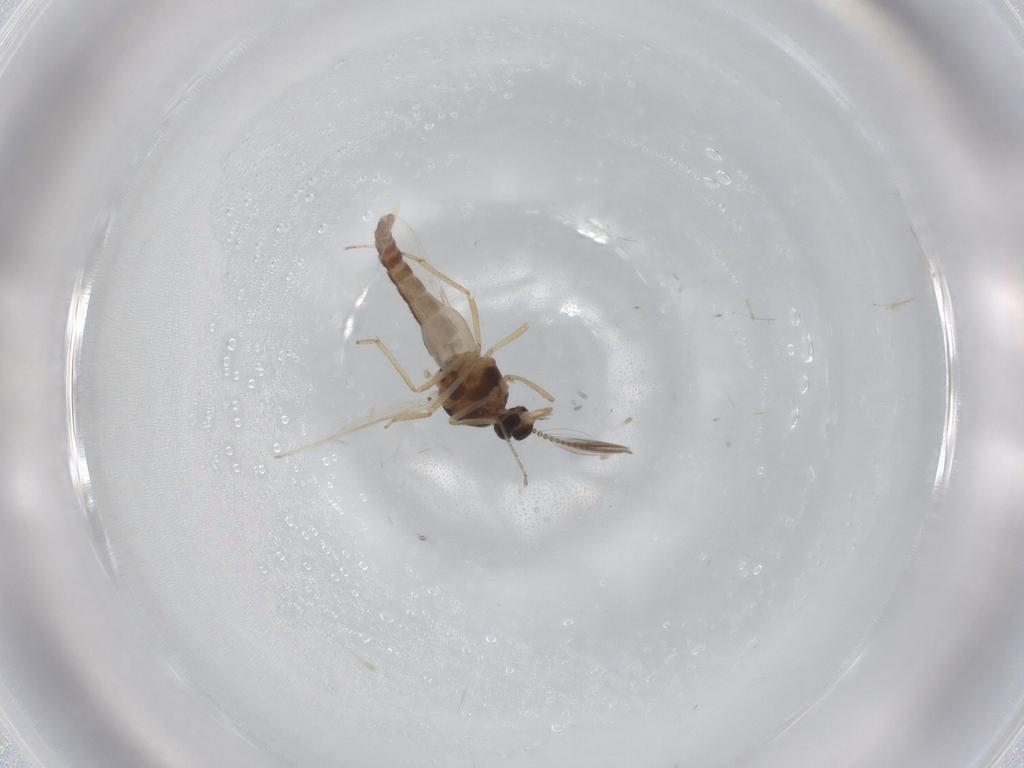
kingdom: Animalia
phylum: Arthropoda
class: Insecta
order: Diptera
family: Ceratopogonidae
